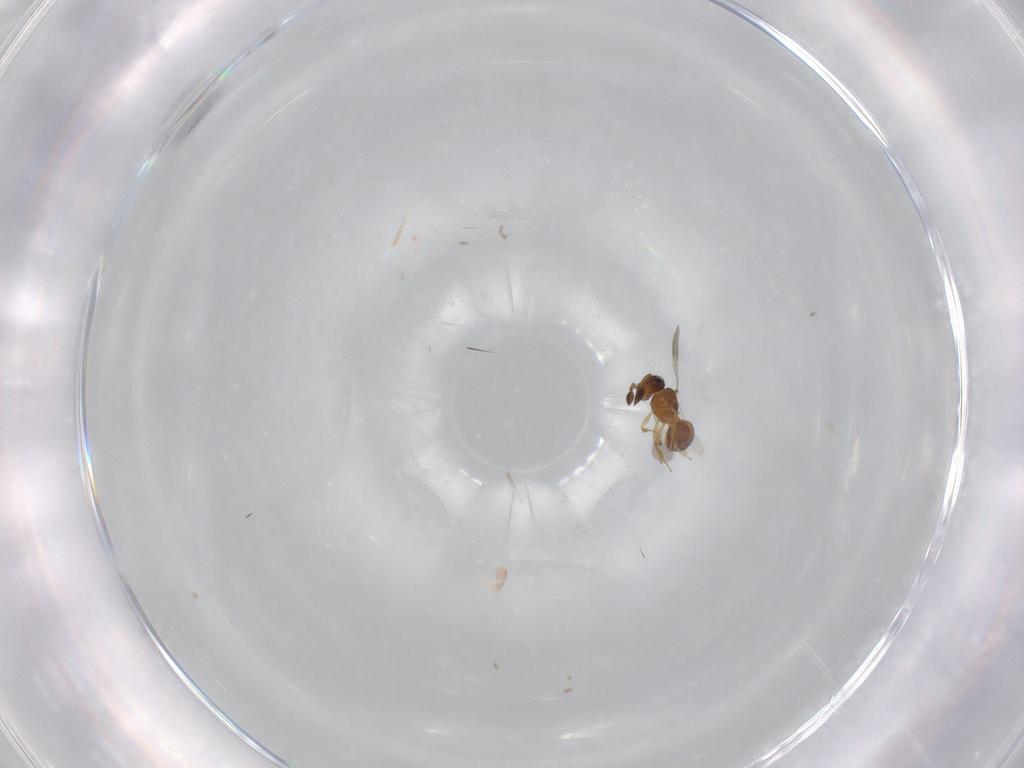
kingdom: Animalia
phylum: Arthropoda
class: Insecta
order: Hymenoptera
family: Scelionidae
